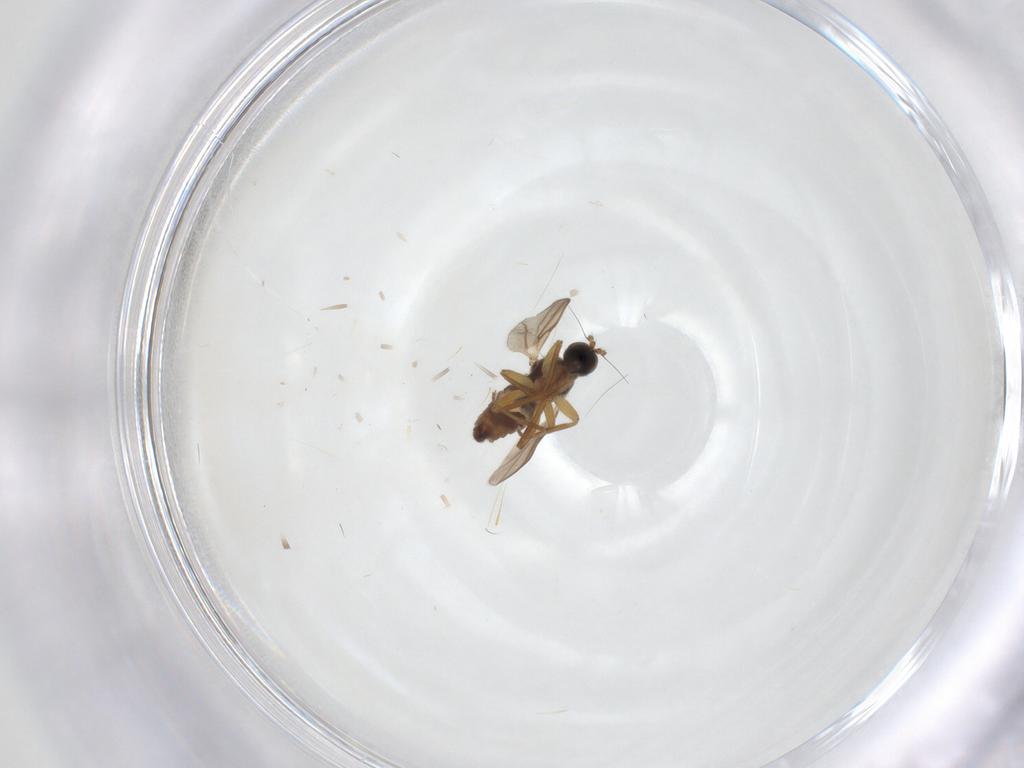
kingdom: Animalia
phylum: Arthropoda
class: Insecta
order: Diptera
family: Hybotidae
